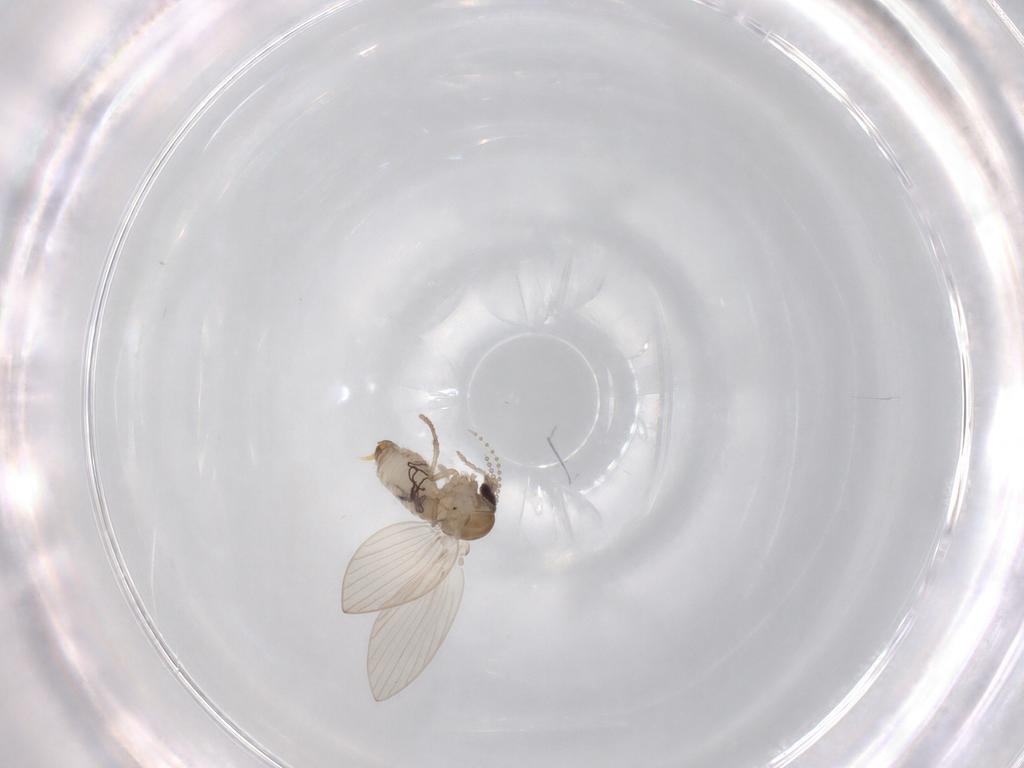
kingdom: Animalia
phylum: Arthropoda
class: Insecta
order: Diptera
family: Psychodidae
